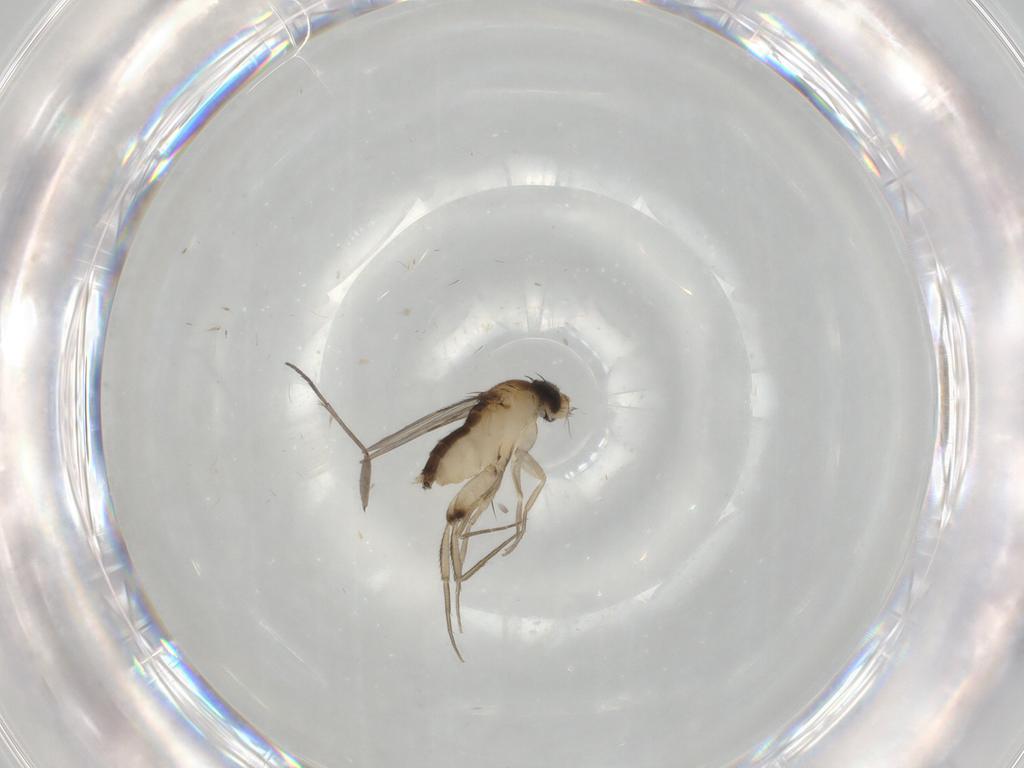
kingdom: Animalia
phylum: Arthropoda
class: Insecta
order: Diptera
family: Phoridae
